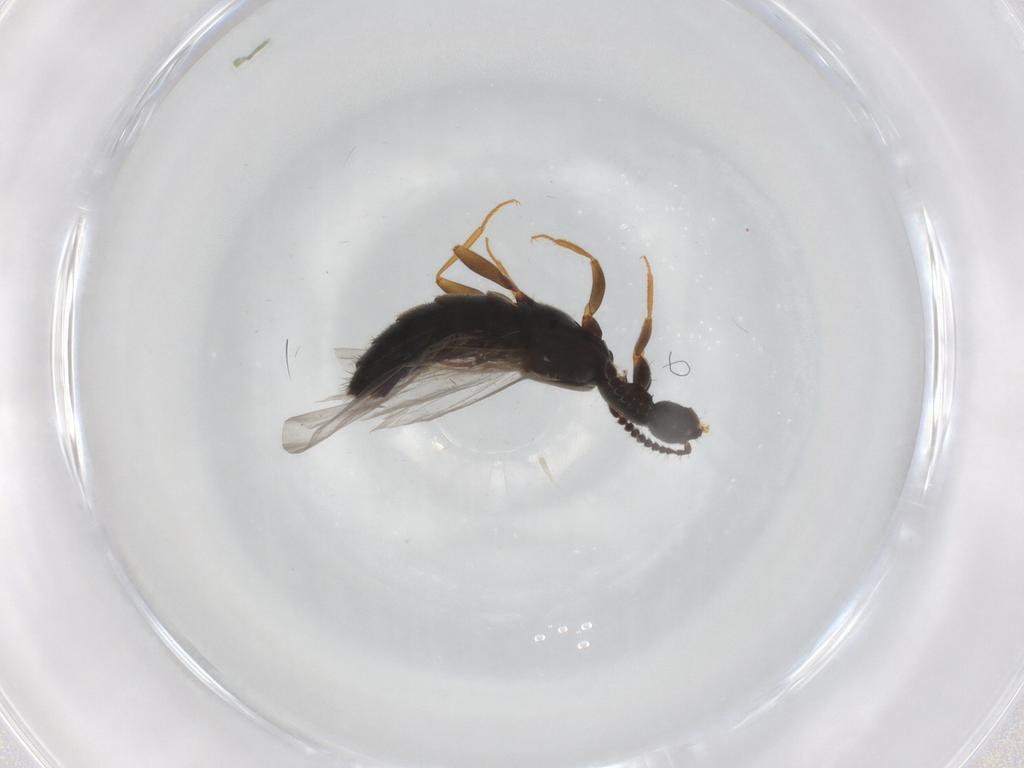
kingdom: Animalia
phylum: Arthropoda
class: Insecta
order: Coleoptera
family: Staphylinidae
